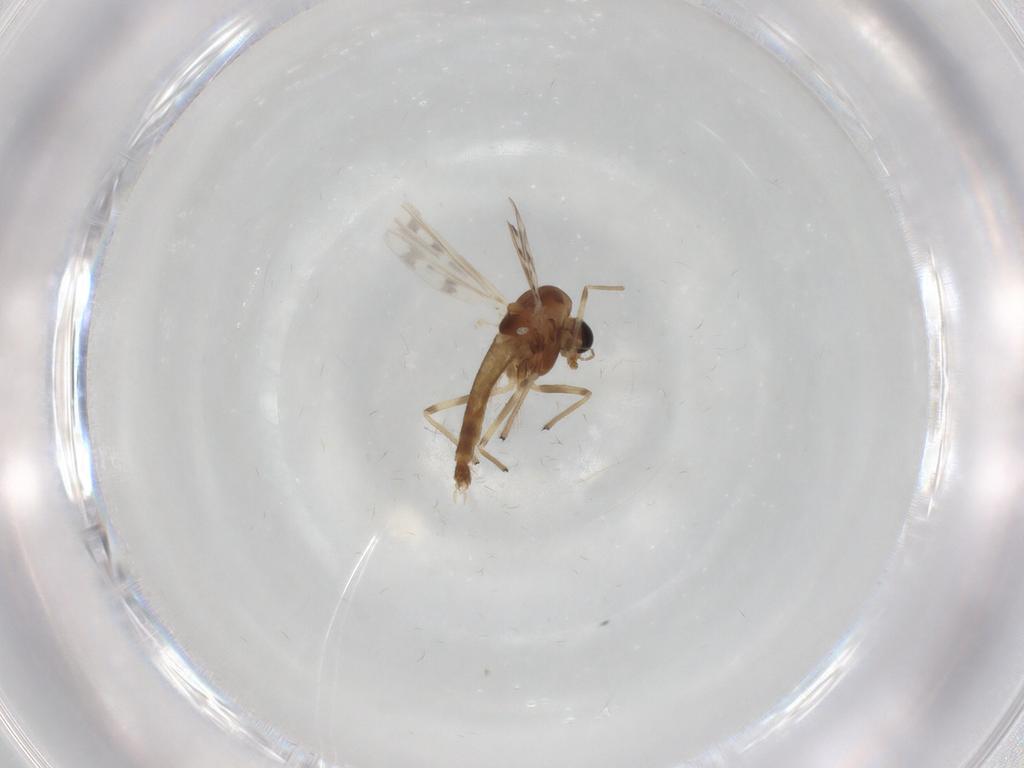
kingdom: Animalia
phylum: Arthropoda
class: Insecta
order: Diptera
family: Chironomidae
